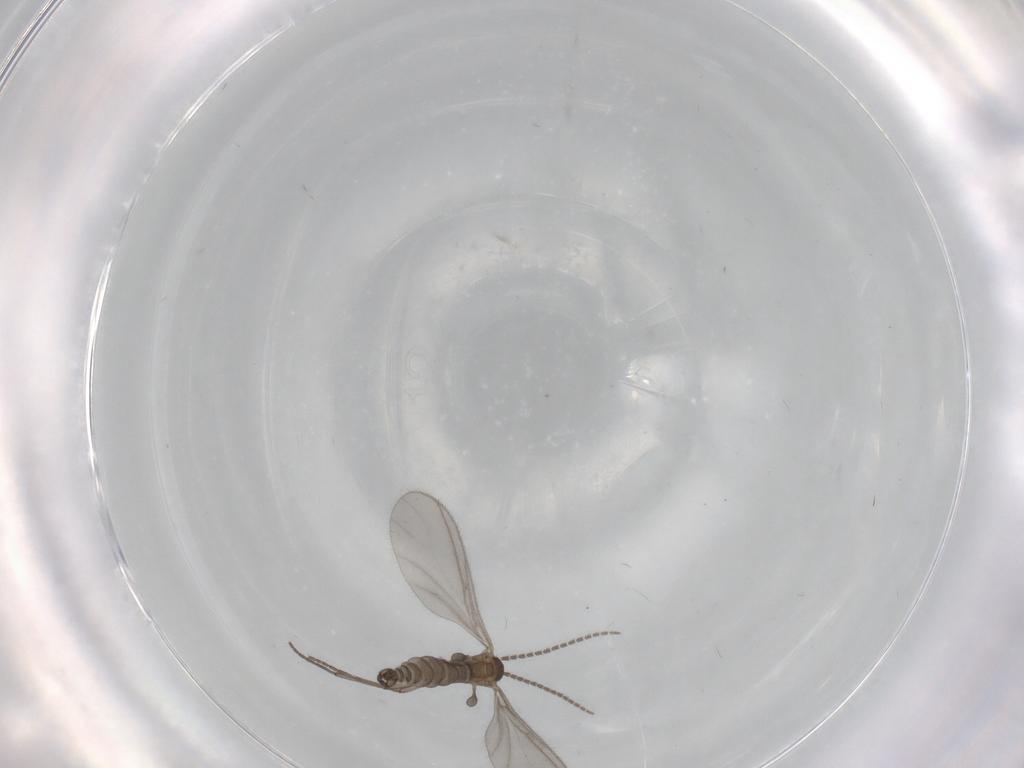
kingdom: Animalia
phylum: Arthropoda
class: Insecta
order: Diptera
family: Sciaridae
